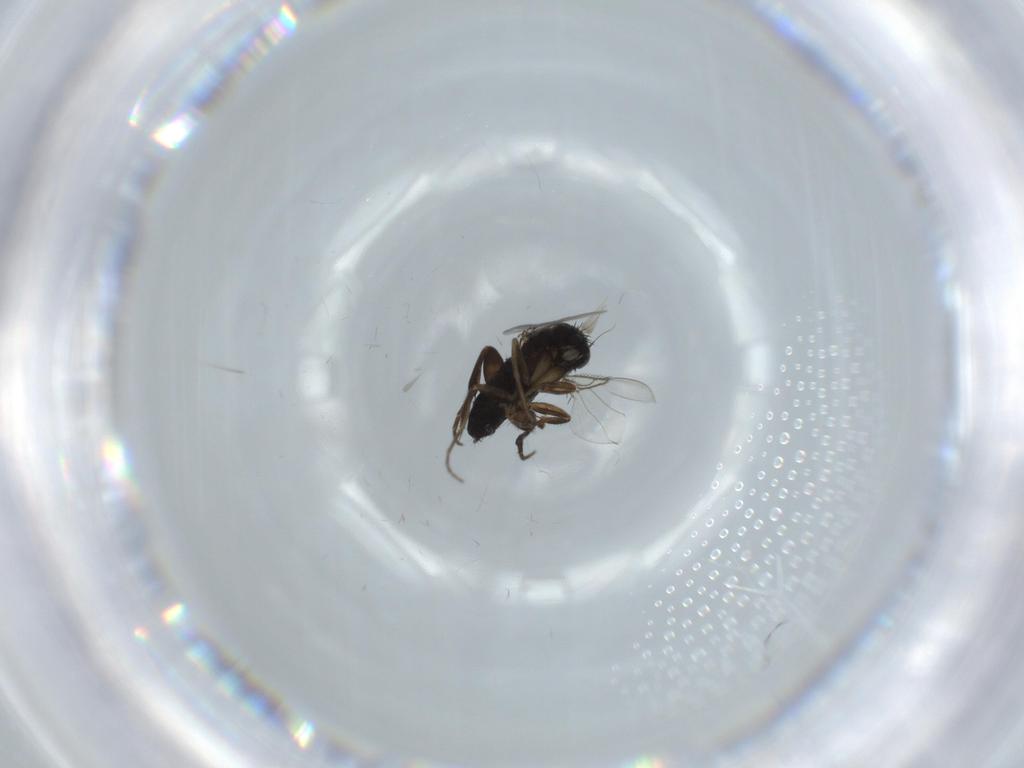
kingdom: Animalia
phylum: Arthropoda
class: Insecta
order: Diptera
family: Phoridae
